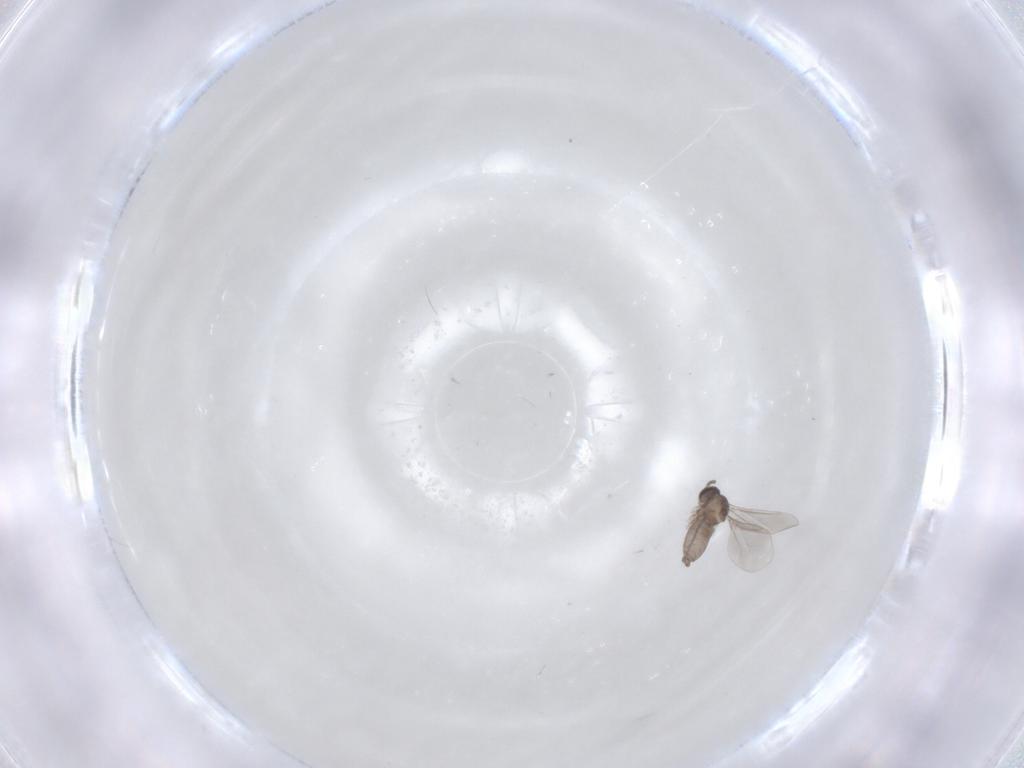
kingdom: Animalia
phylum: Arthropoda
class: Insecta
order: Diptera
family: Cecidomyiidae
